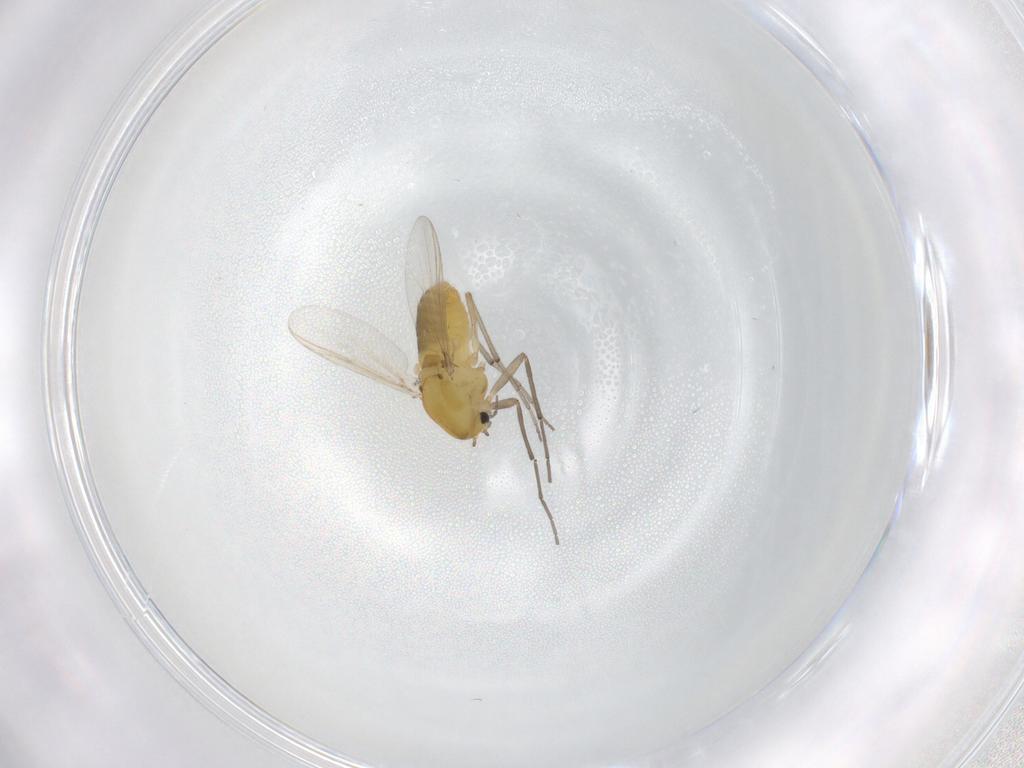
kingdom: Animalia
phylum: Arthropoda
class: Insecta
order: Diptera
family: Chironomidae
